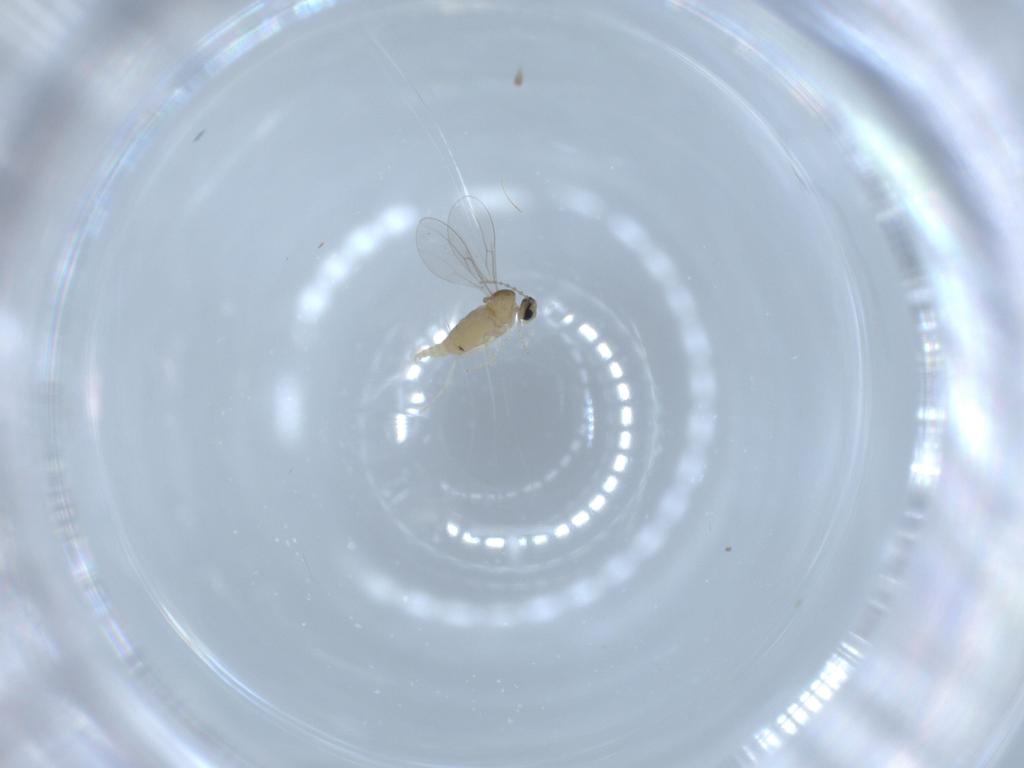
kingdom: Animalia
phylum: Arthropoda
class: Insecta
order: Diptera
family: Cecidomyiidae
